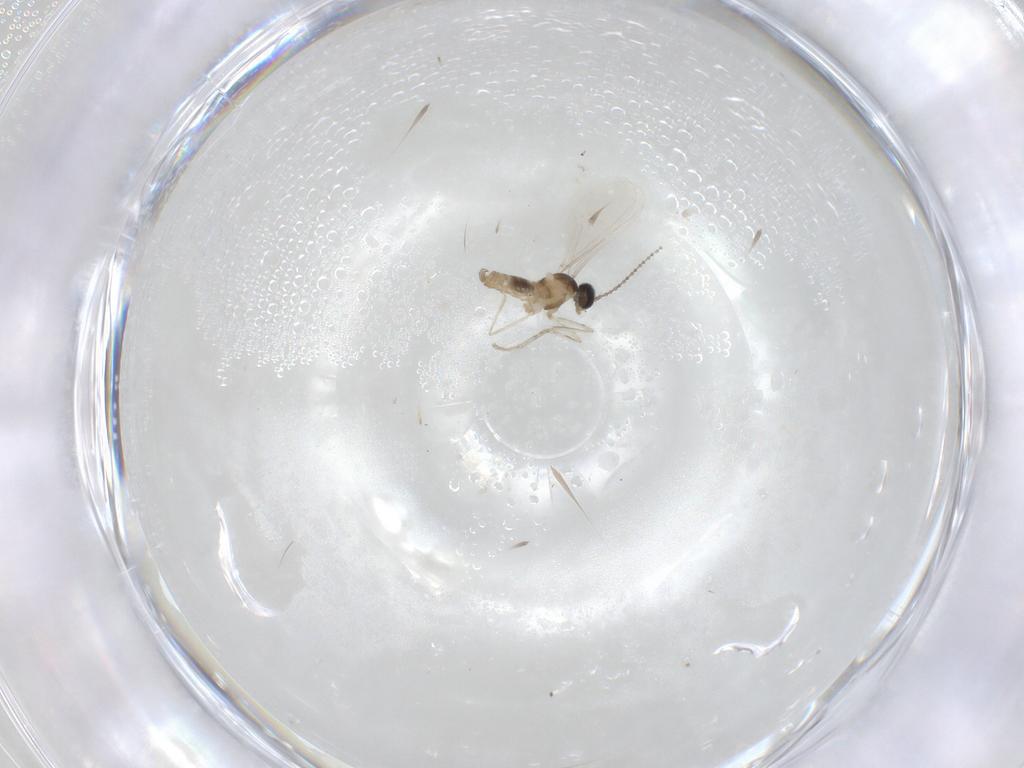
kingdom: Animalia
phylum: Arthropoda
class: Insecta
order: Diptera
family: Cecidomyiidae
